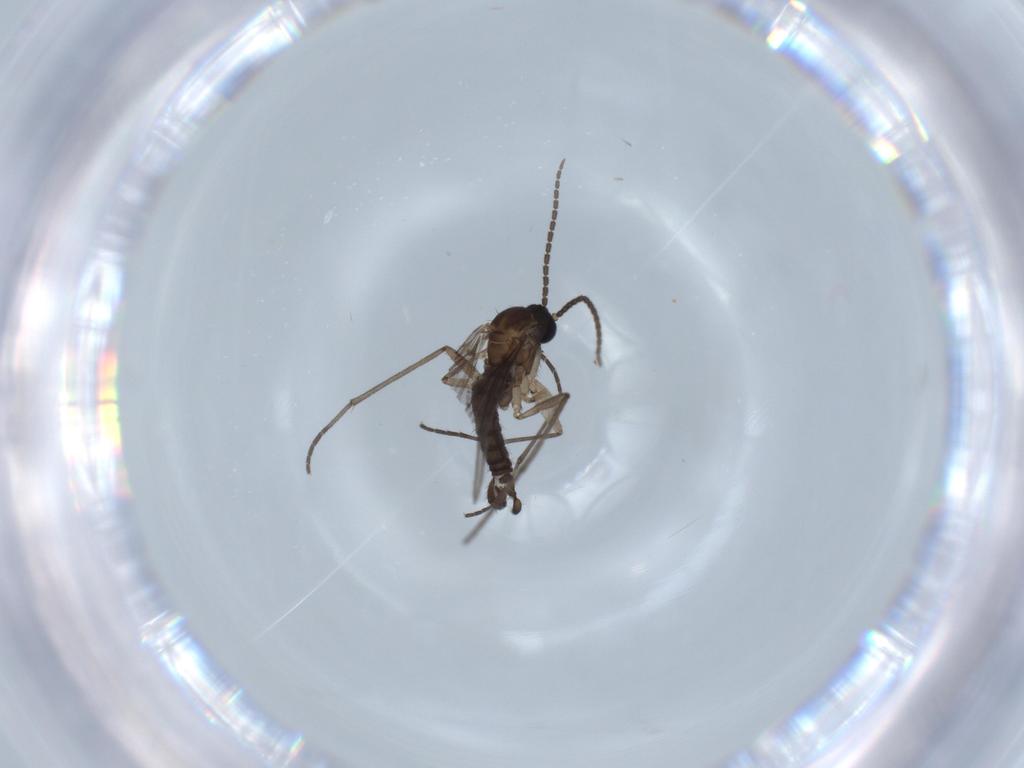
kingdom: Animalia
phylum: Arthropoda
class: Insecta
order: Diptera
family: Sciaridae
